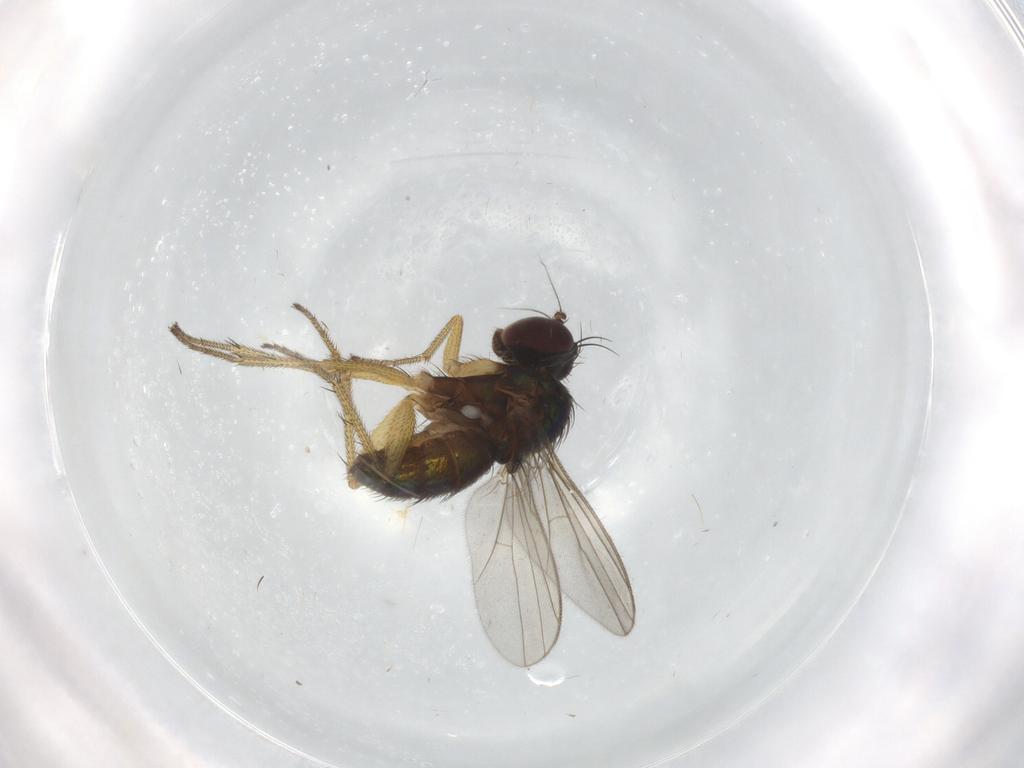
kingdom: Animalia
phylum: Arthropoda
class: Insecta
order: Diptera
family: Dolichopodidae
